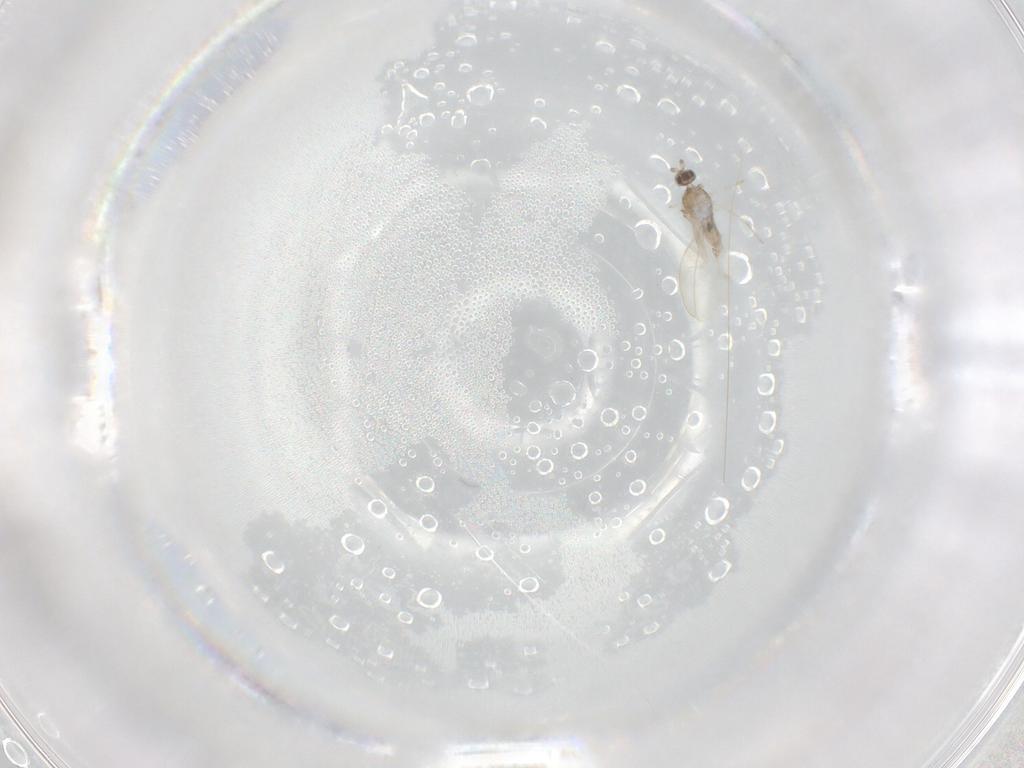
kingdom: Animalia
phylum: Arthropoda
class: Insecta
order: Diptera
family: Cecidomyiidae
